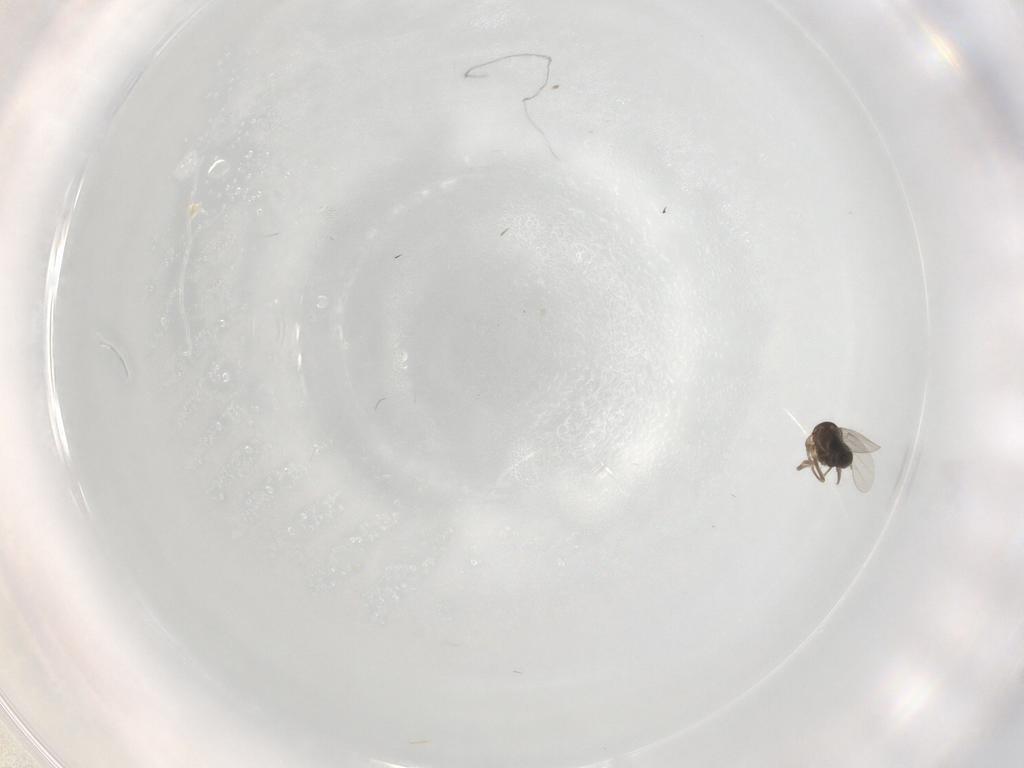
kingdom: Animalia
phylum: Arthropoda
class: Insecta
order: Diptera
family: Cecidomyiidae
